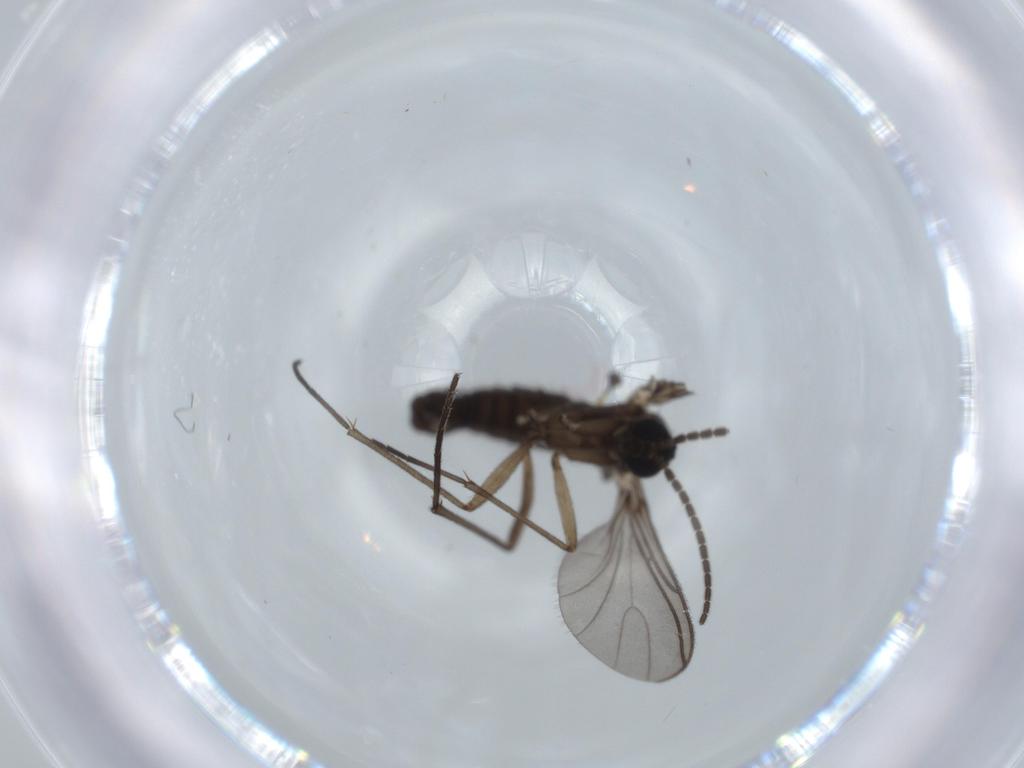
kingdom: Animalia
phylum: Arthropoda
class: Insecta
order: Diptera
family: Sciaridae
